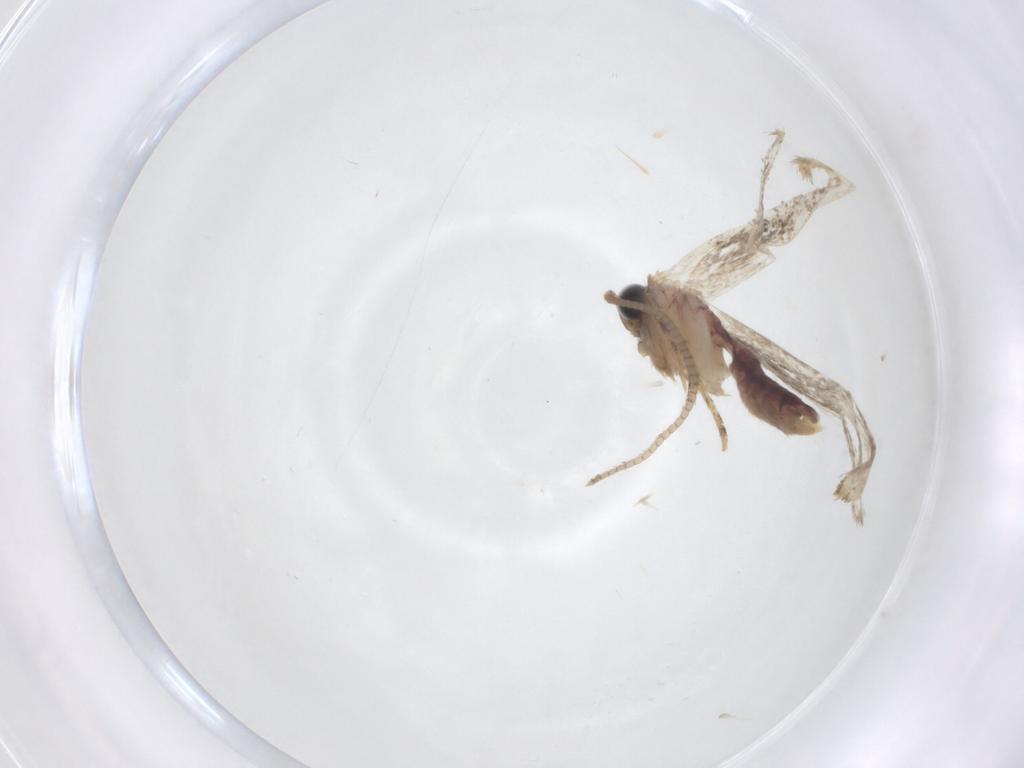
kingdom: Animalia
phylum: Arthropoda
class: Insecta
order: Lepidoptera
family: Dryadaulidae
